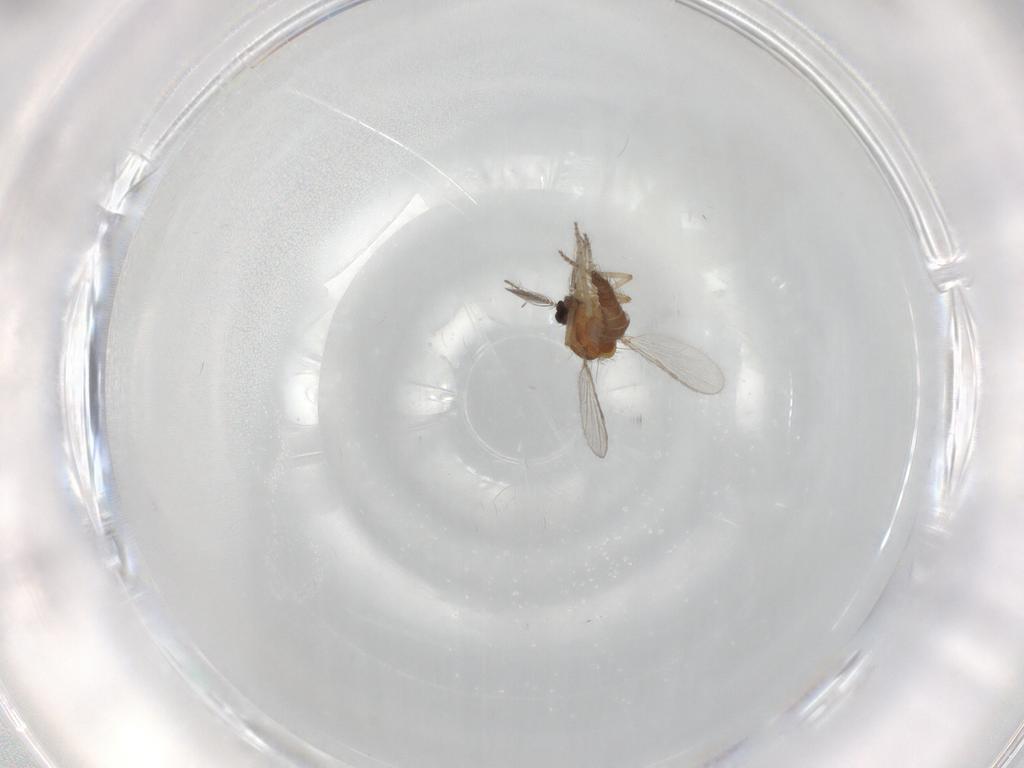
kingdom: Animalia
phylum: Arthropoda
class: Insecta
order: Diptera
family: Ceratopogonidae
